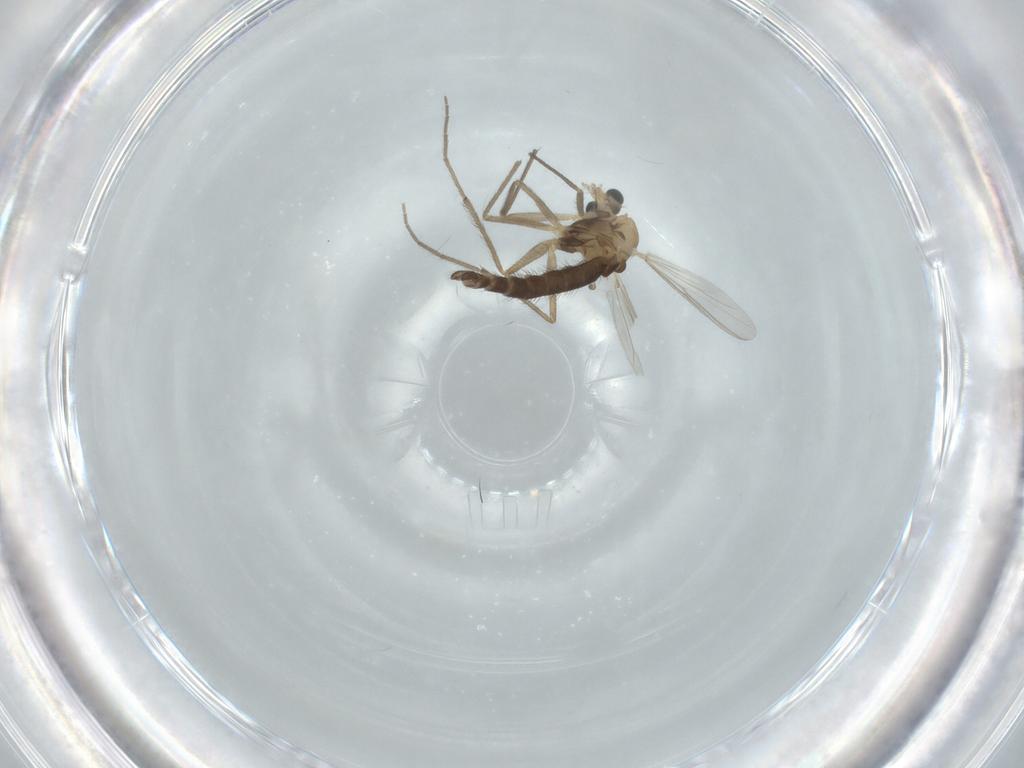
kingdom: Animalia
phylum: Arthropoda
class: Insecta
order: Diptera
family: Chironomidae
